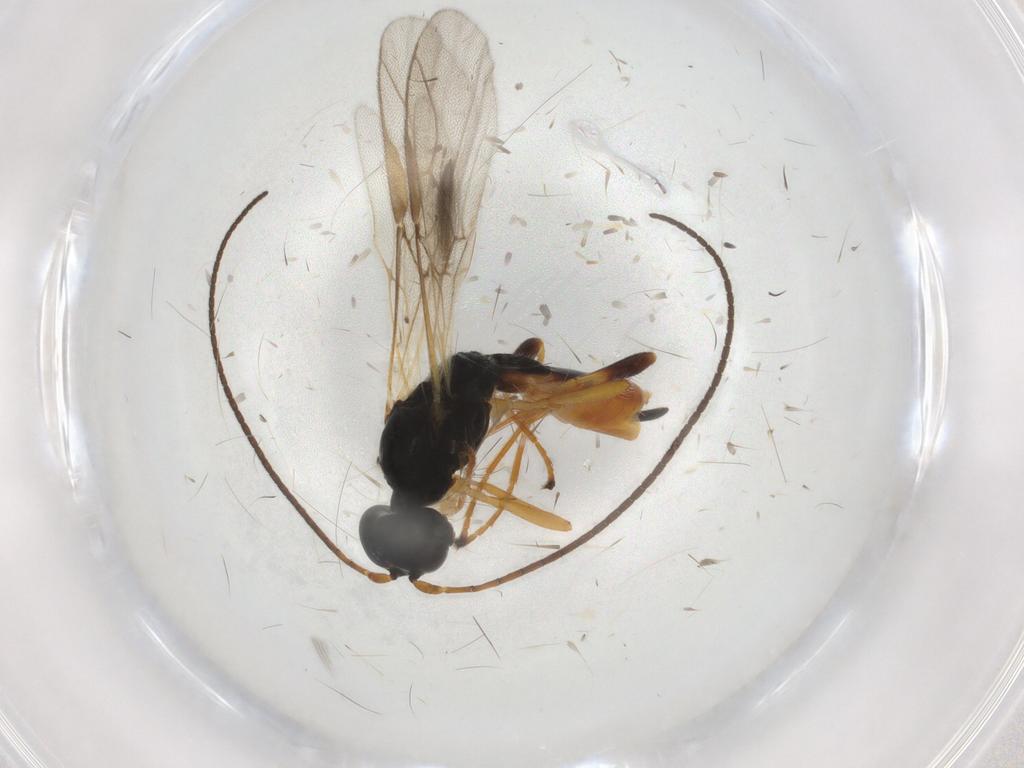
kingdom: Animalia
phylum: Arthropoda
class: Insecta
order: Hymenoptera
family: Braconidae
